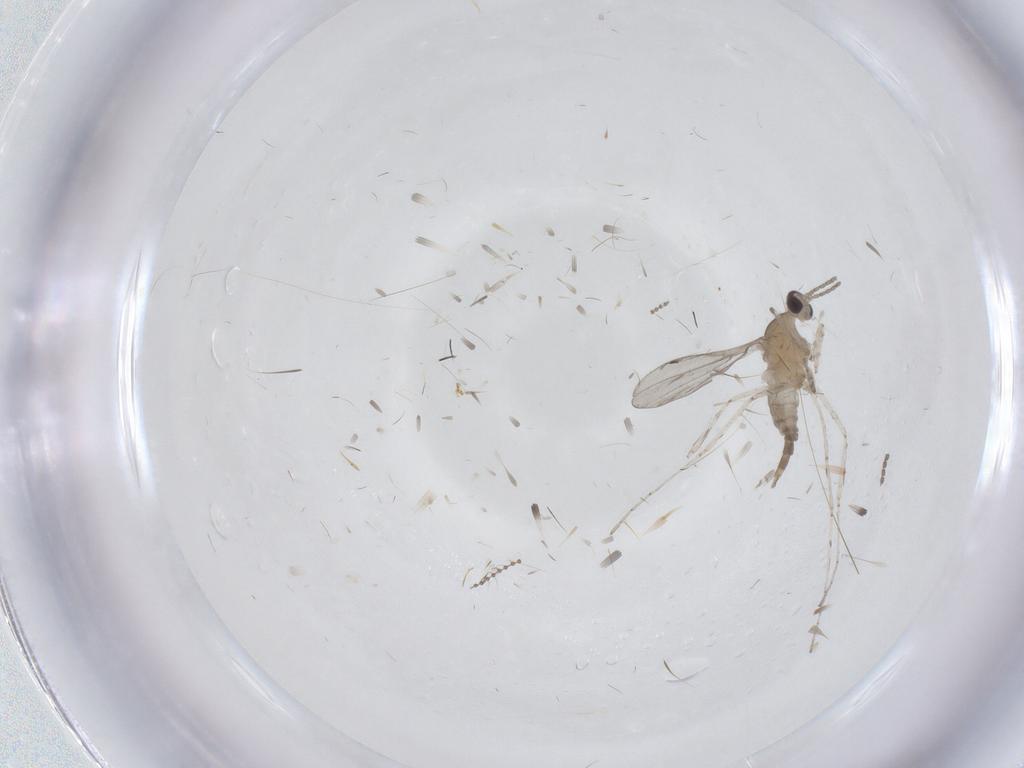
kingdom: Animalia
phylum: Arthropoda
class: Insecta
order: Diptera
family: Cecidomyiidae
